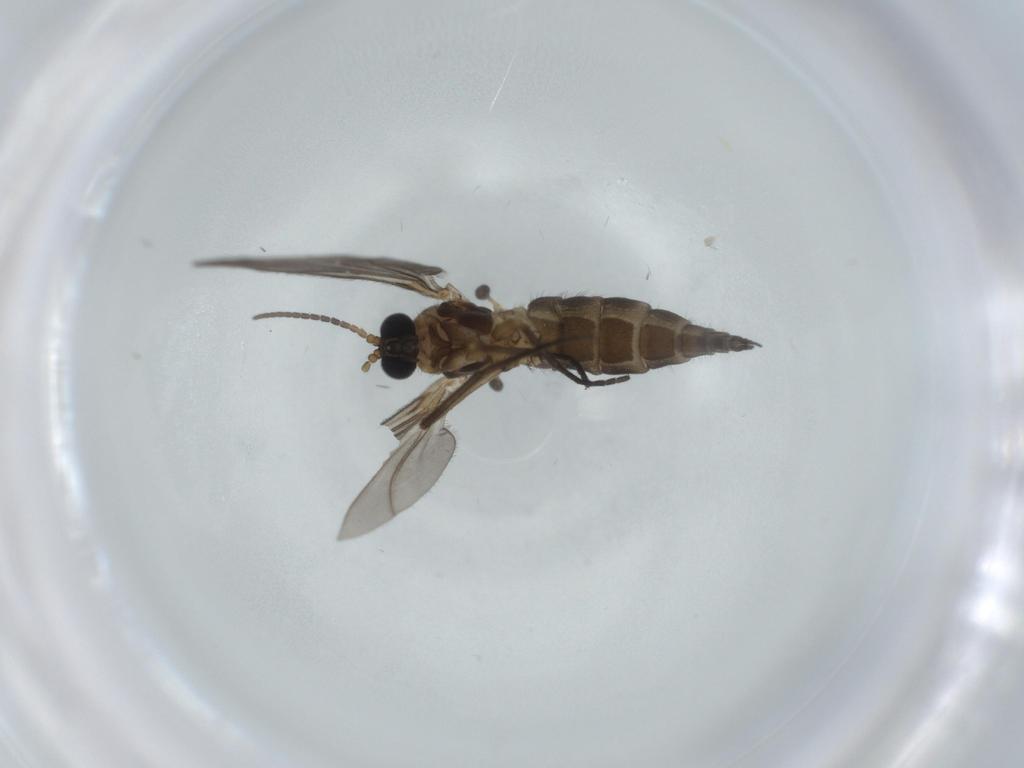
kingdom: Animalia
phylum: Arthropoda
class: Insecta
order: Diptera
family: Sciaridae
